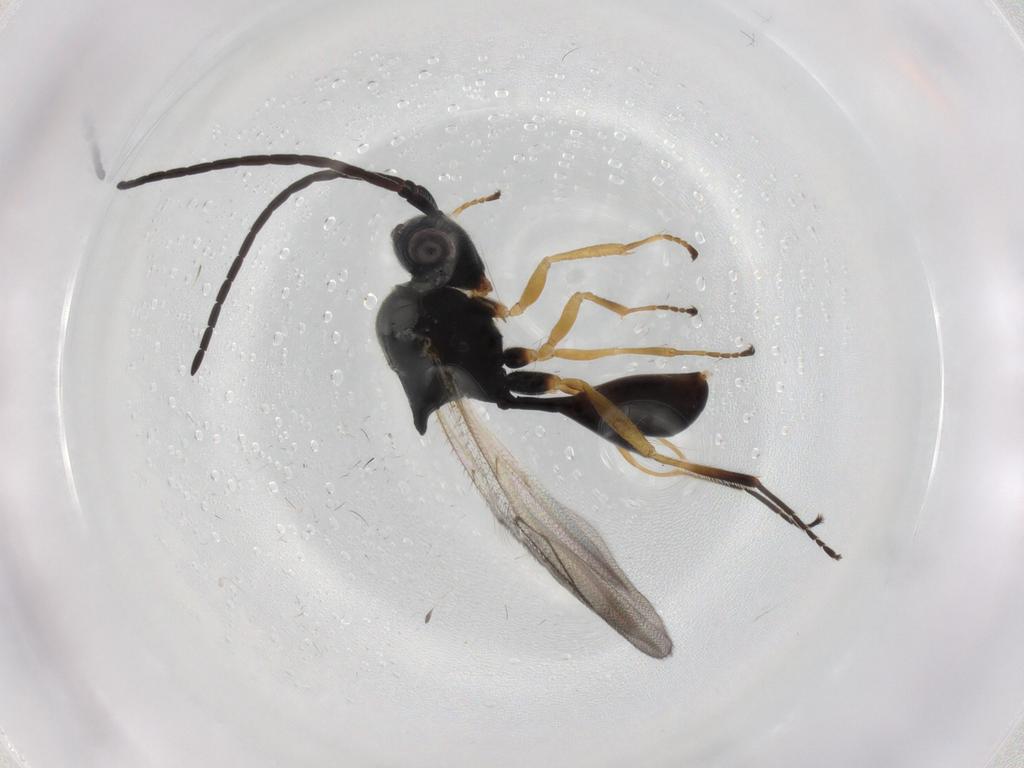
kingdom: Animalia
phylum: Arthropoda
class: Insecta
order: Hymenoptera
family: Figitidae
